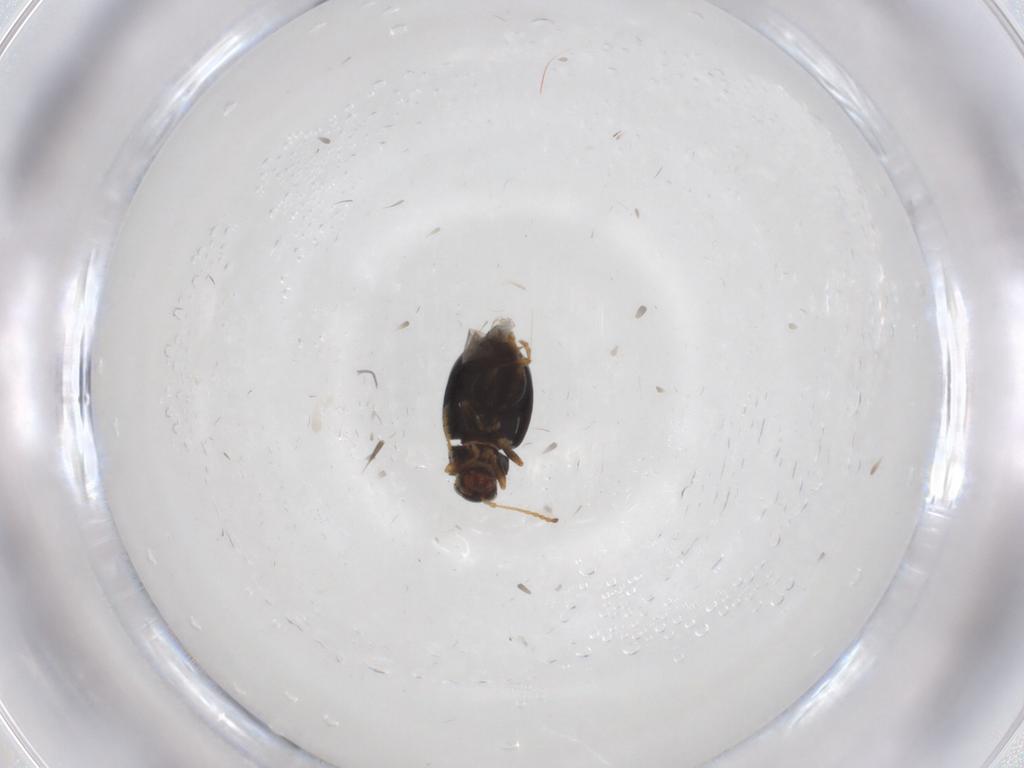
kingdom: Animalia
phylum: Arthropoda
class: Insecta
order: Coleoptera
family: Chrysomelidae
